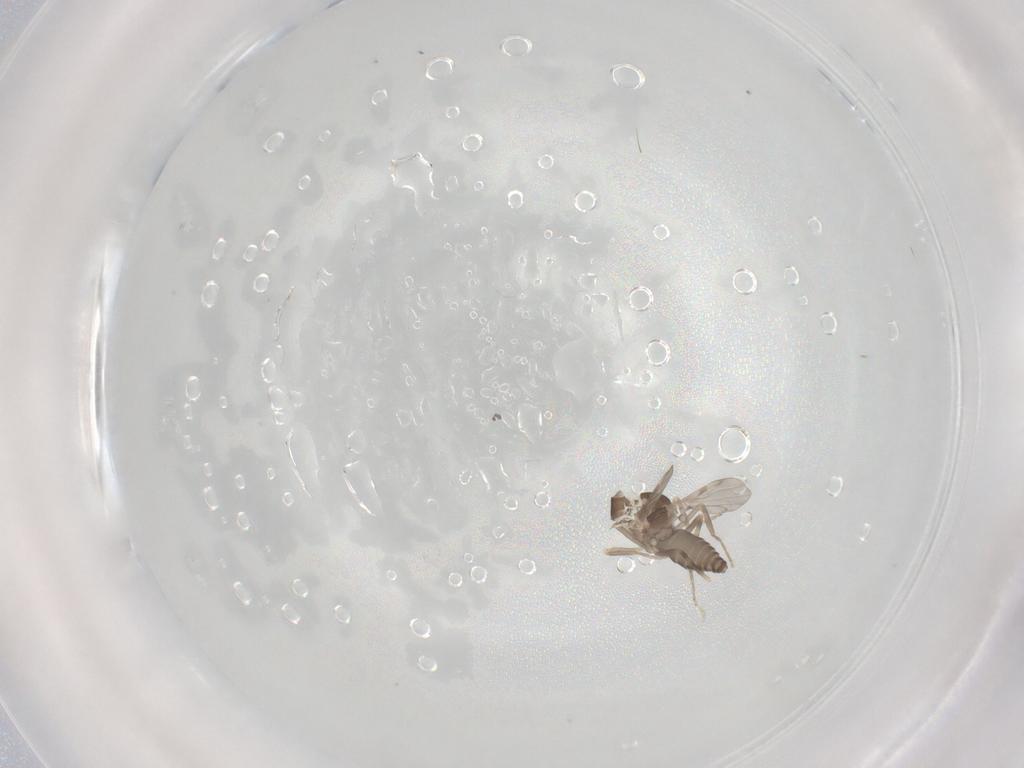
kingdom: Animalia
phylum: Arthropoda
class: Insecta
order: Diptera
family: Ceratopogonidae
